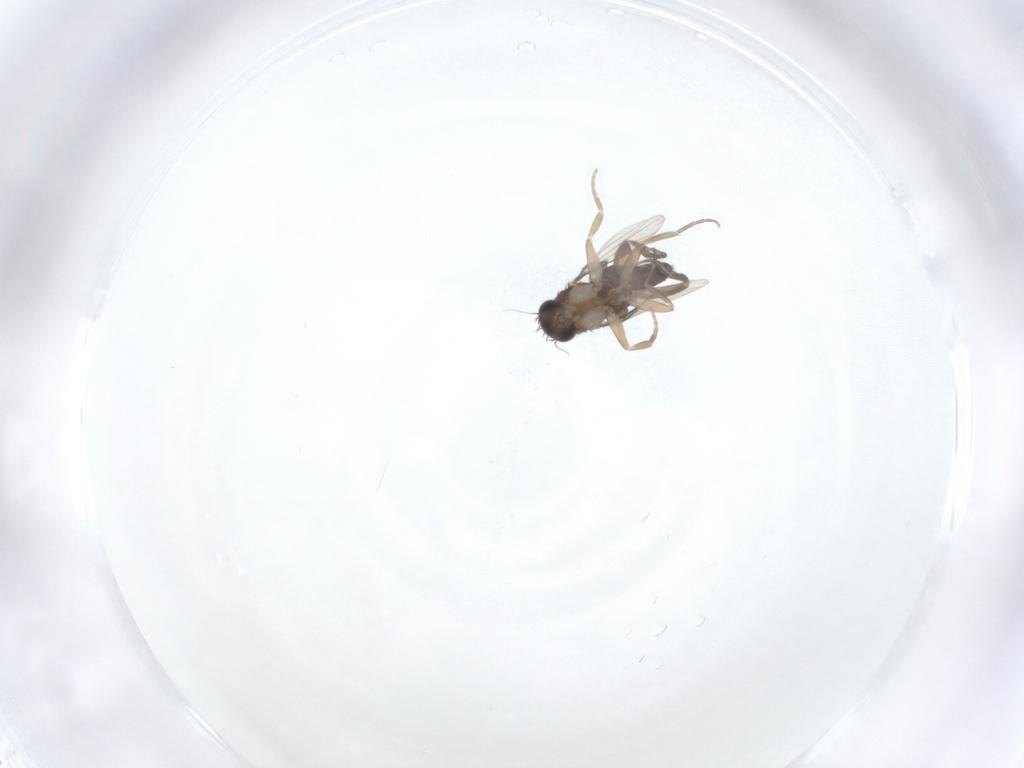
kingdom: Animalia
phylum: Arthropoda
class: Insecta
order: Diptera
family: Phoridae
